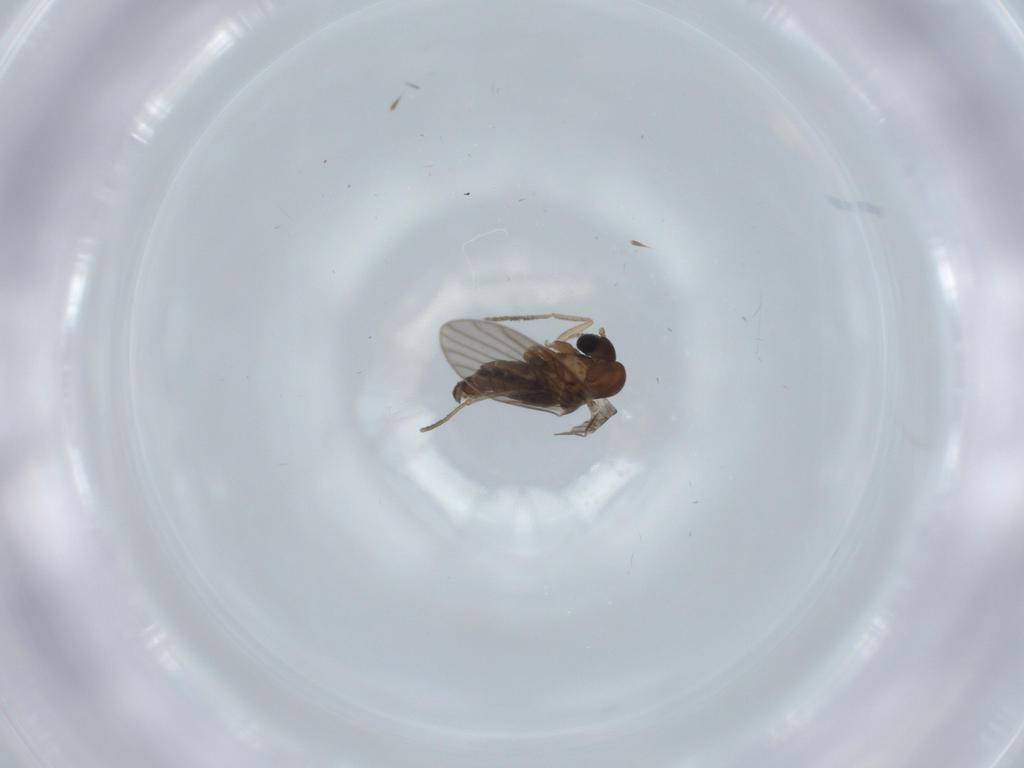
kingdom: Animalia
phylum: Arthropoda
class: Insecta
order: Diptera
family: Psychodidae
